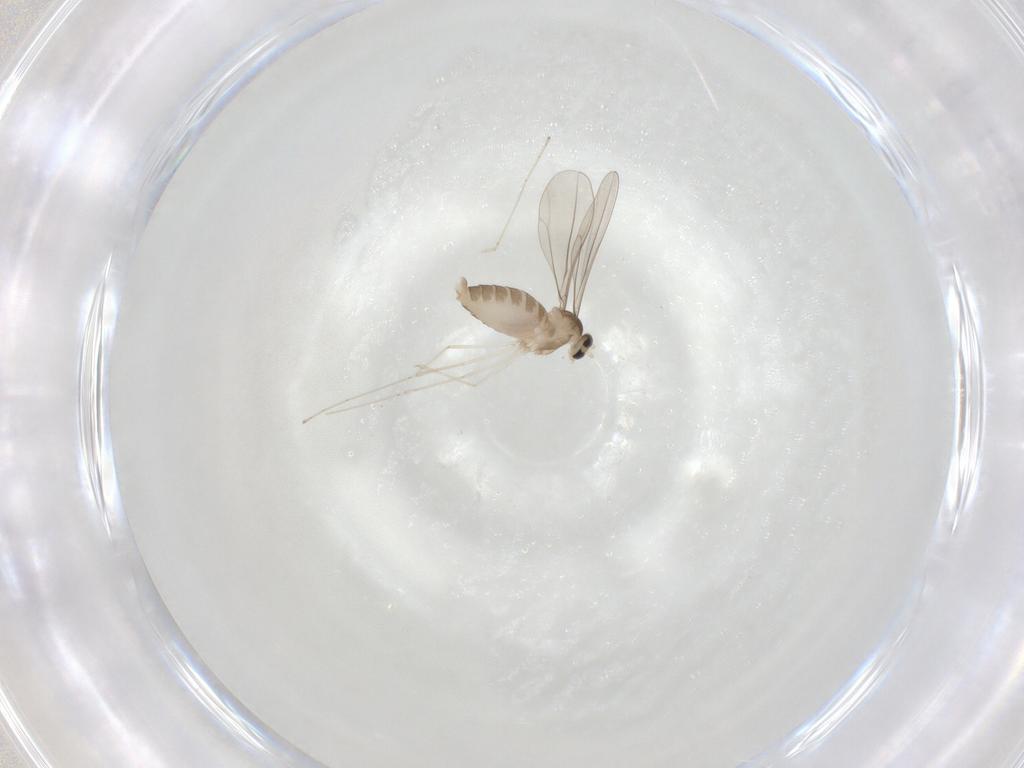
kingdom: Animalia
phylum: Arthropoda
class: Insecta
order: Diptera
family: Cecidomyiidae
